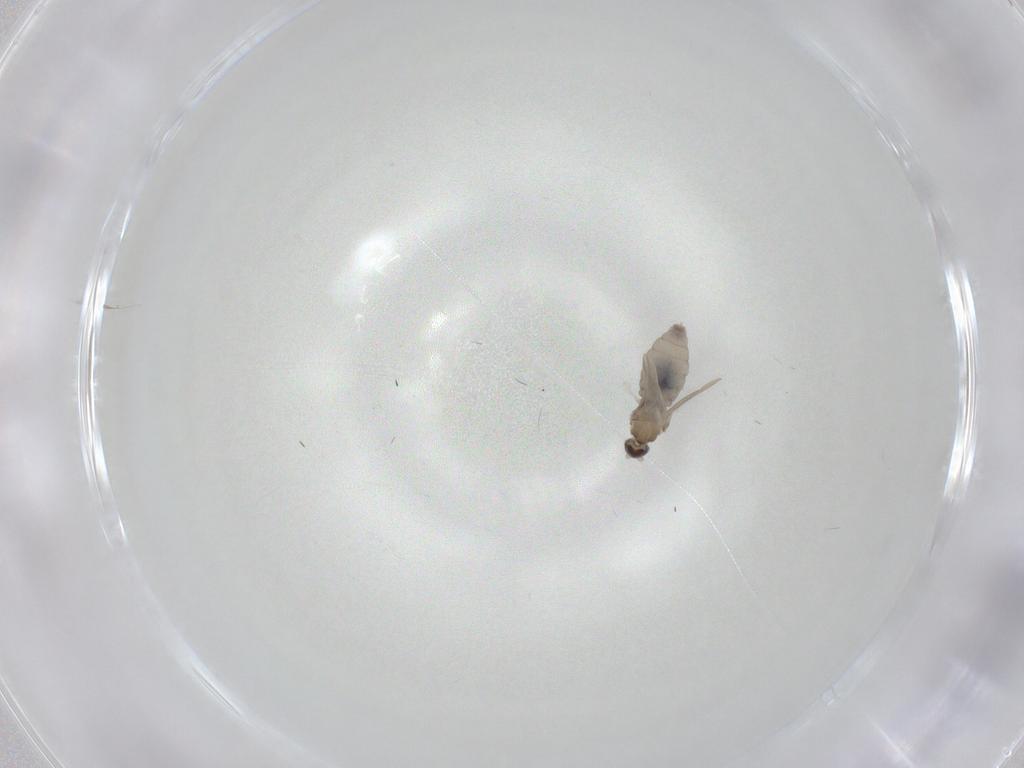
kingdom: Animalia
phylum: Arthropoda
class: Insecta
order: Diptera
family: Cecidomyiidae
